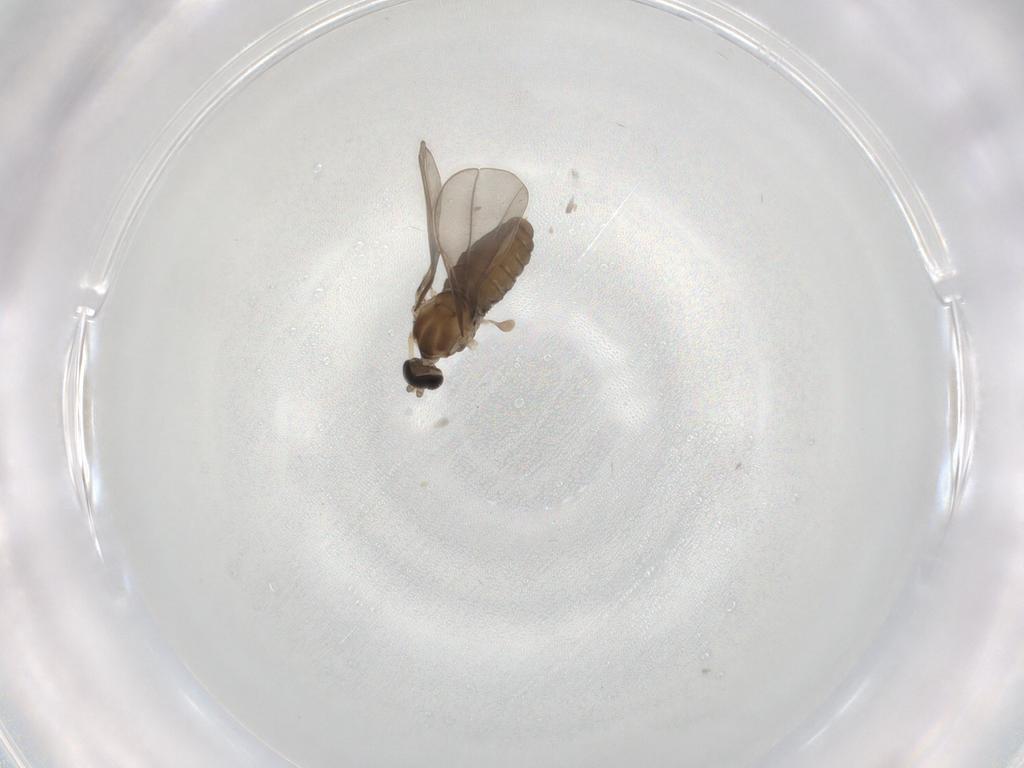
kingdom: Animalia
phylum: Arthropoda
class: Insecta
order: Diptera
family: Cecidomyiidae
